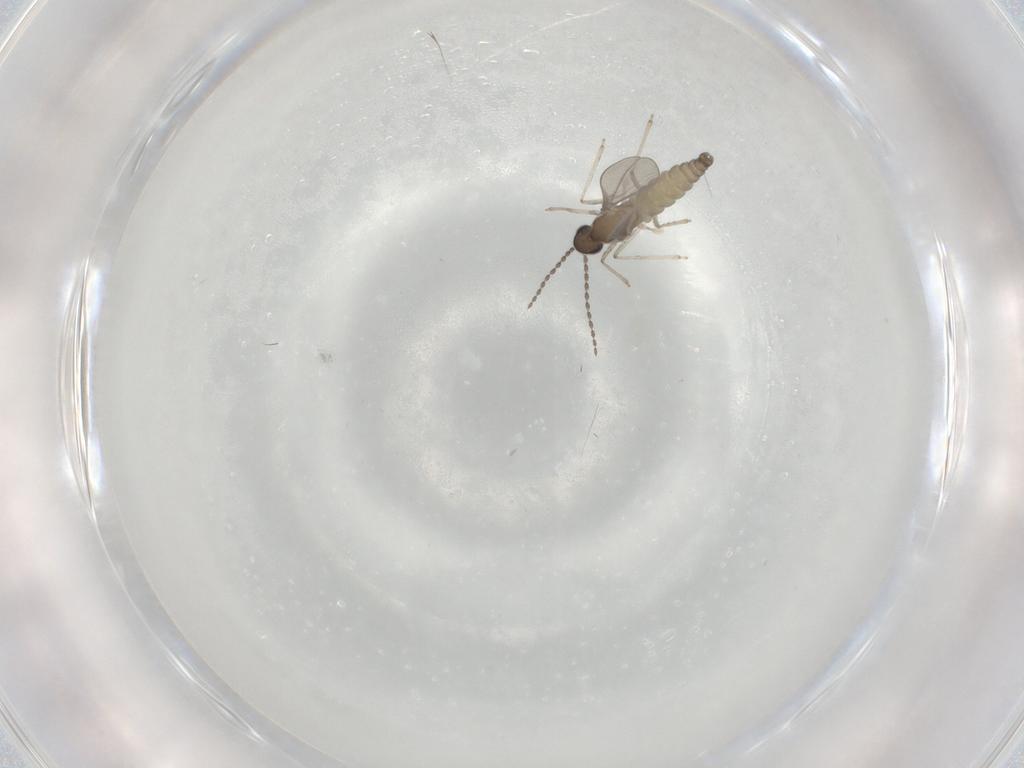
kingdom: Animalia
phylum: Arthropoda
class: Insecta
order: Diptera
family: Cecidomyiidae
